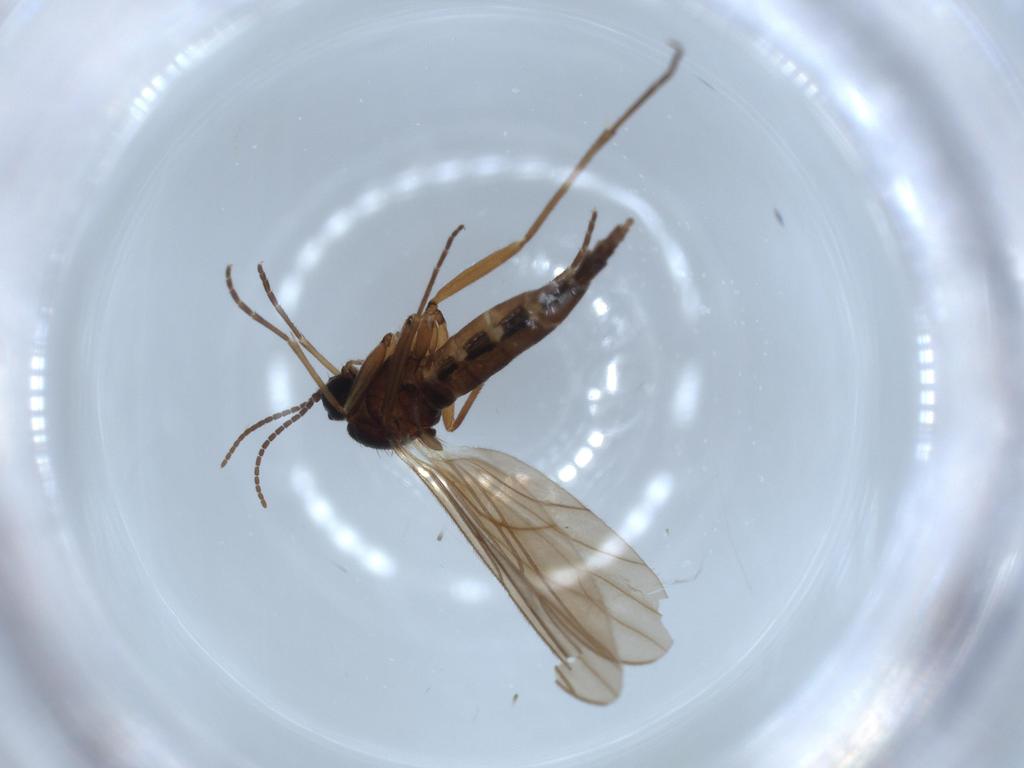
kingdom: Animalia
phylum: Arthropoda
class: Insecta
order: Diptera
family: Sciaridae
